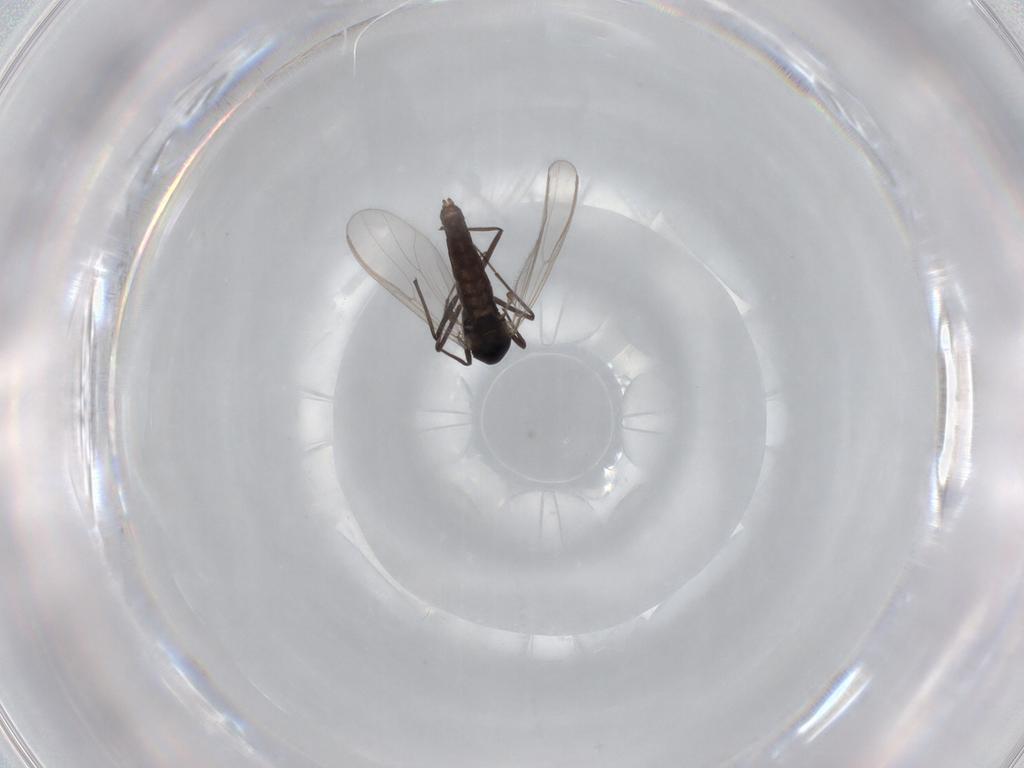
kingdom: Animalia
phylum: Arthropoda
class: Insecta
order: Diptera
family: Chironomidae
